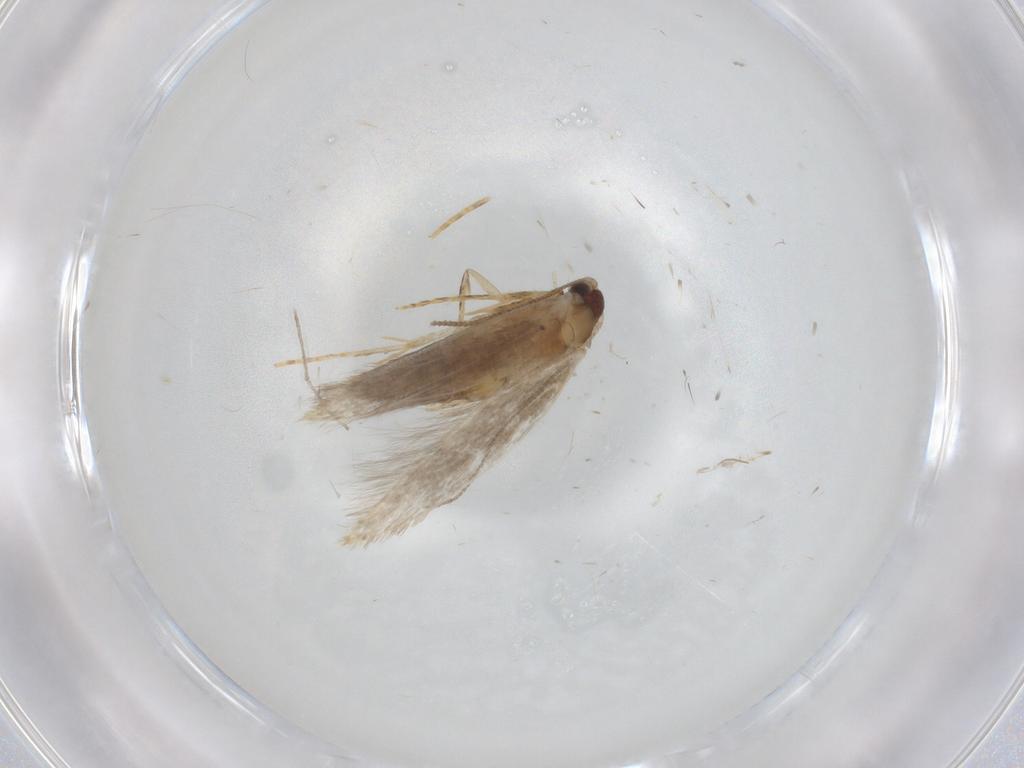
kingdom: Animalia
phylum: Arthropoda
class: Insecta
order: Lepidoptera
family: Tineidae
